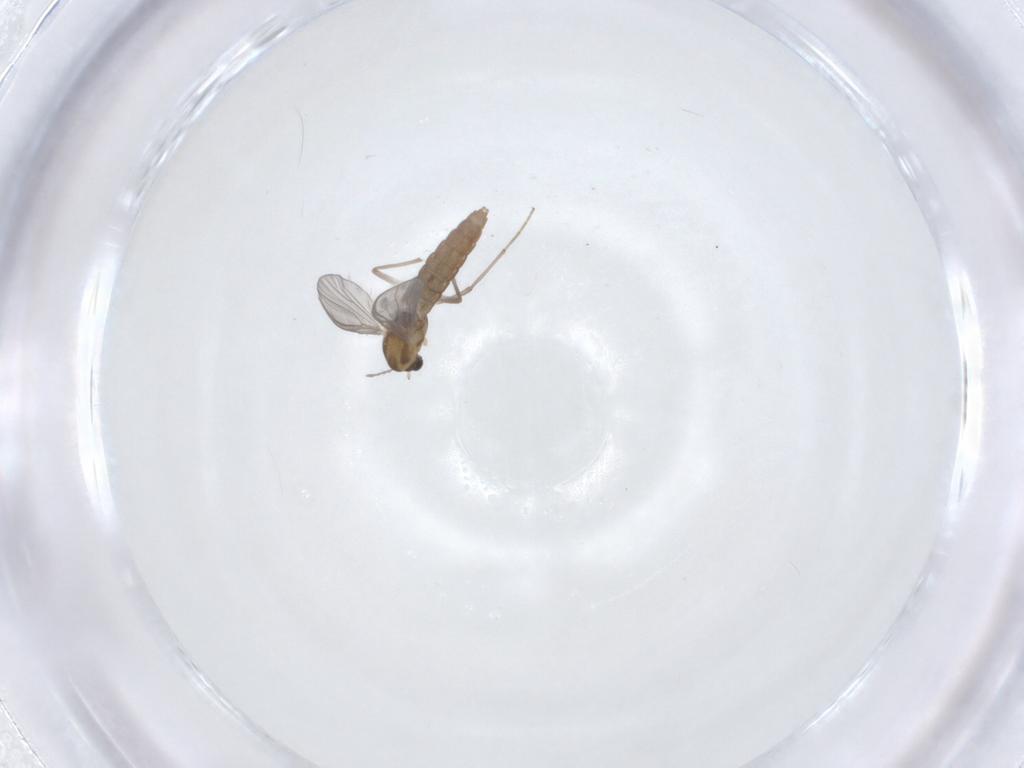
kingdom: Animalia
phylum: Arthropoda
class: Insecta
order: Diptera
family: Chironomidae
